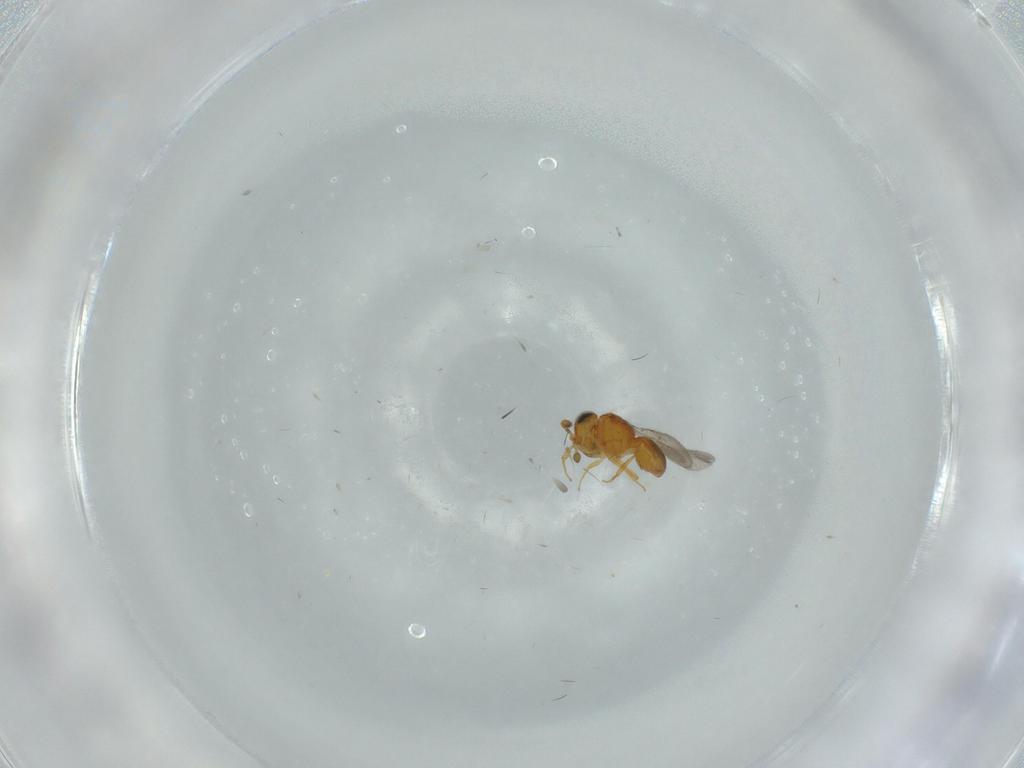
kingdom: Animalia
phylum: Arthropoda
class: Insecta
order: Hymenoptera
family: Scelionidae
